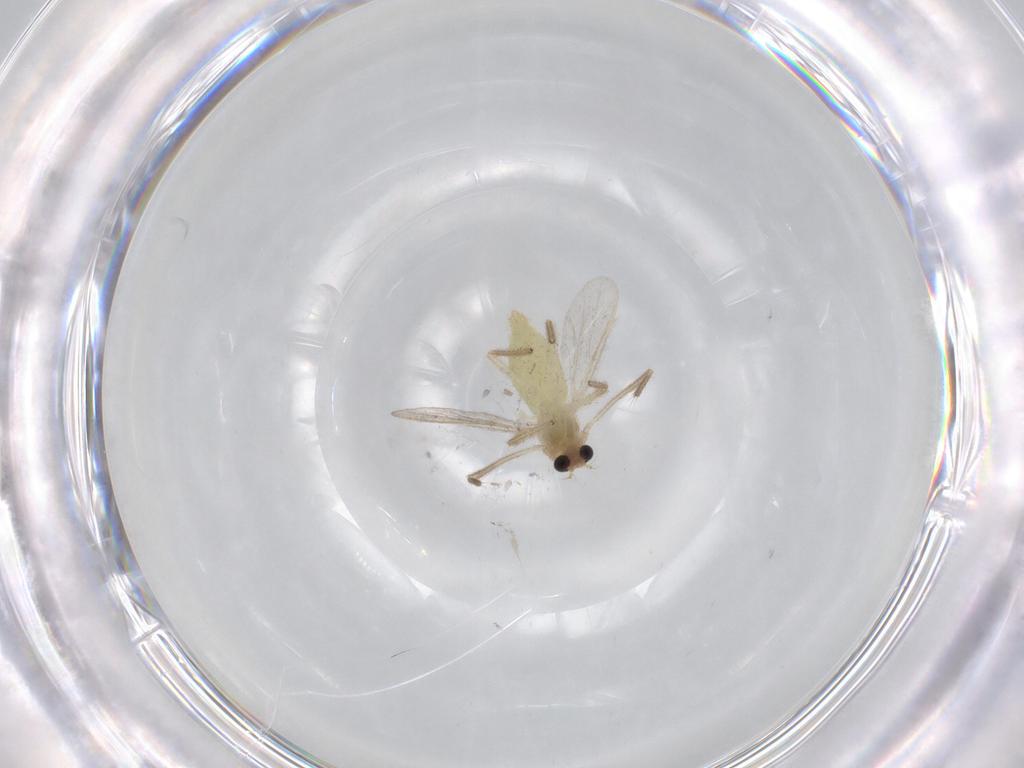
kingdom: Animalia
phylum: Arthropoda
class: Insecta
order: Diptera
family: Chironomidae
